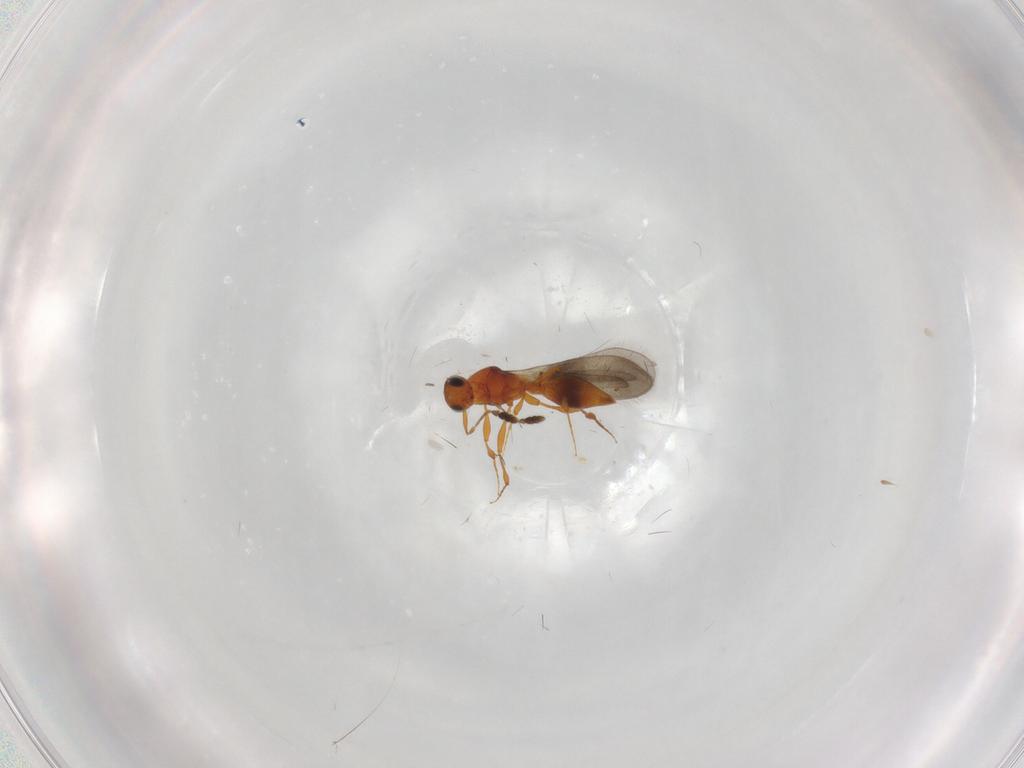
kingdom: Animalia
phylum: Arthropoda
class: Insecta
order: Hymenoptera
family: Platygastridae
